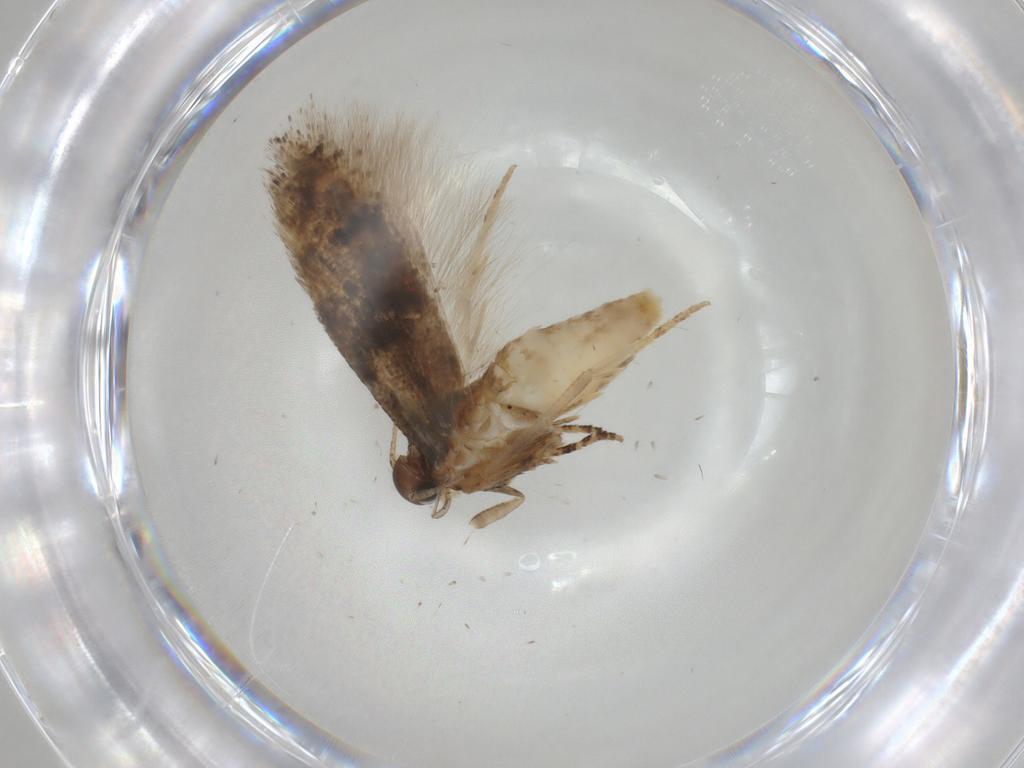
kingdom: Animalia
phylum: Arthropoda
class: Insecta
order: Lepidoptera
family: Gelechiidae
